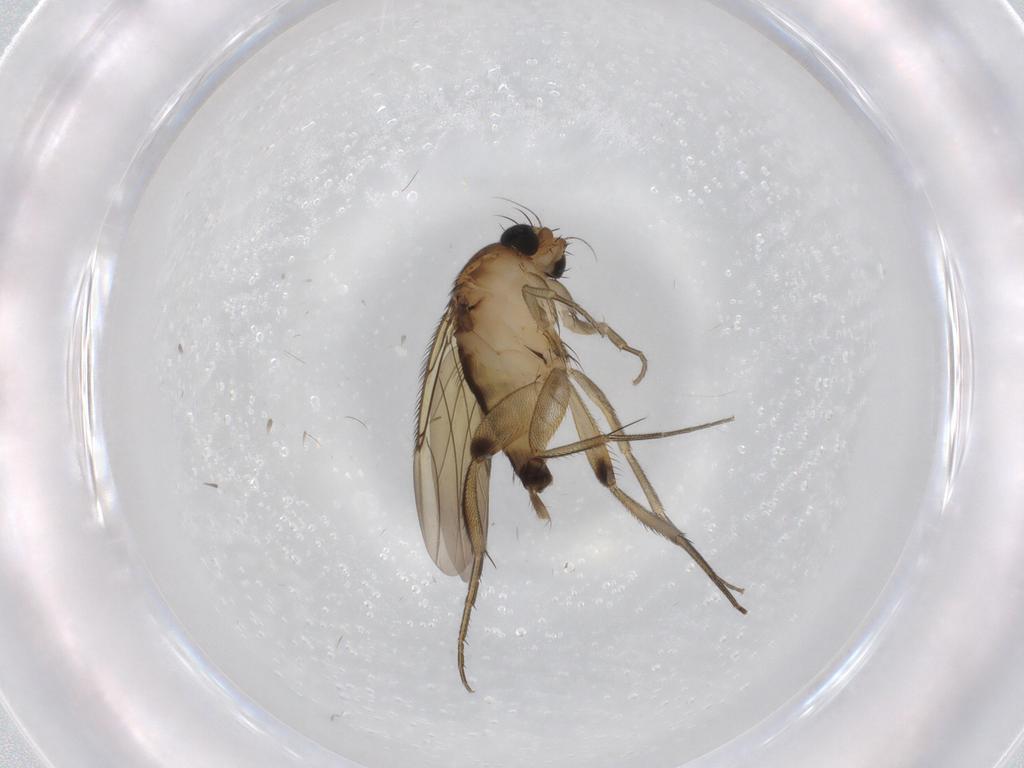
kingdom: Animalia
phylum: Arthropoda
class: Insecta
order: Diptera
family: Phoridae
